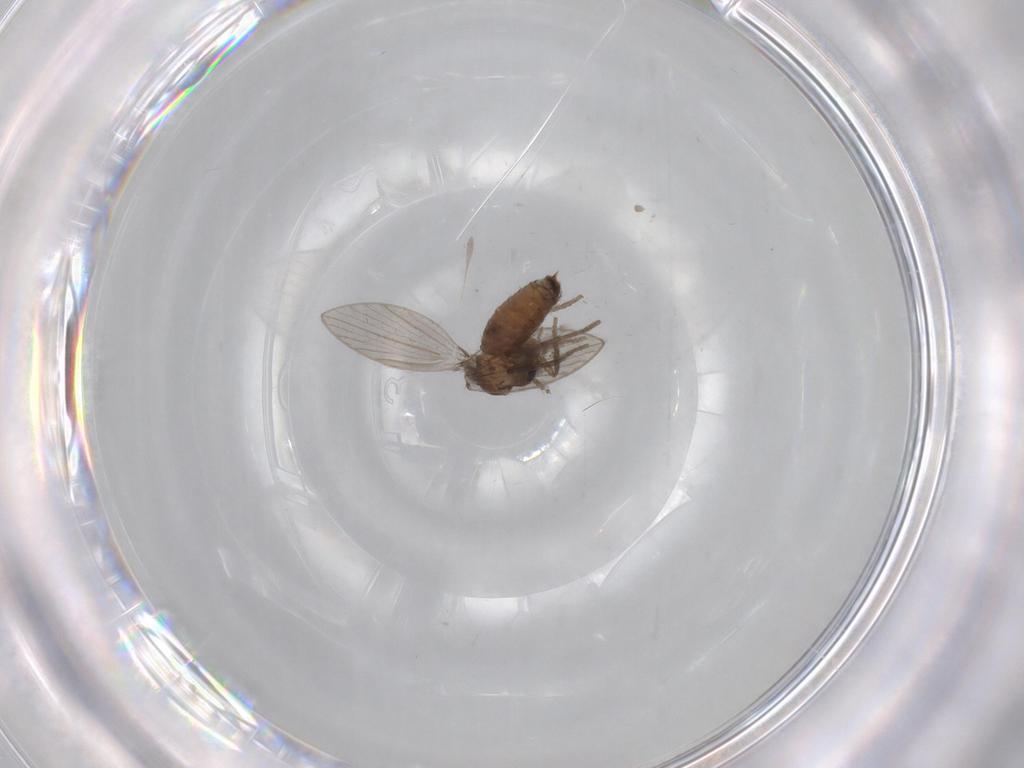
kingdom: Animalia
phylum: Arthropoda
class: Insecta
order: Diptera
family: Psychodidae
